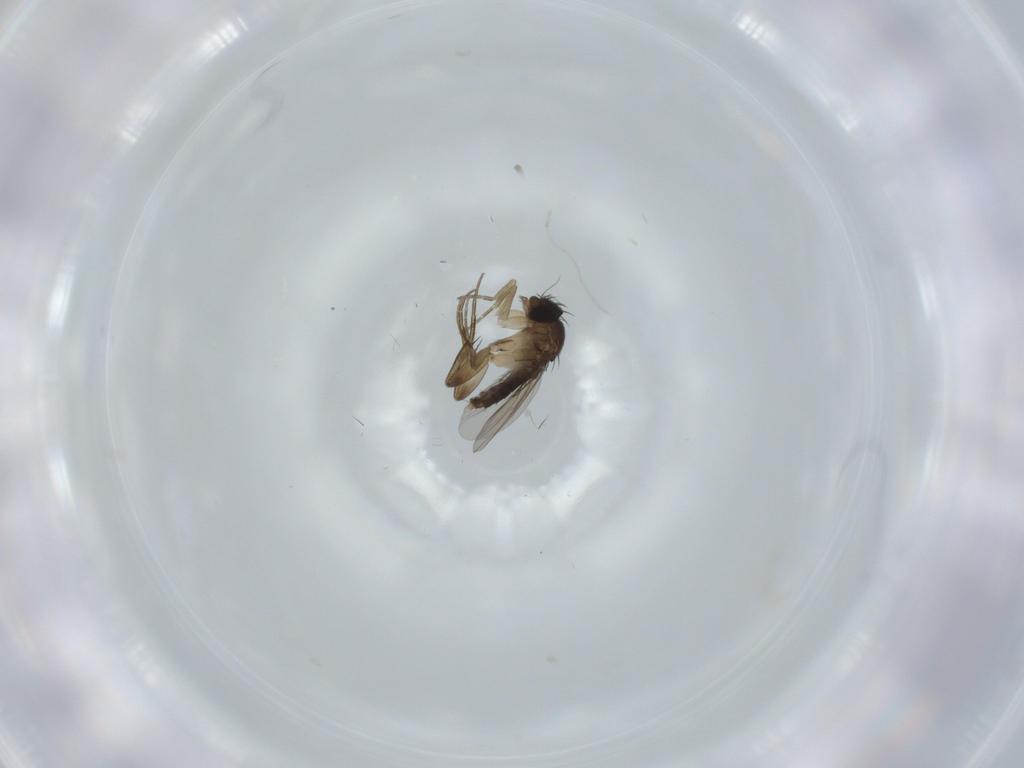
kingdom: Animalia
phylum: Arthropoda
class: Insecta
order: Diptera
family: Phoridae
